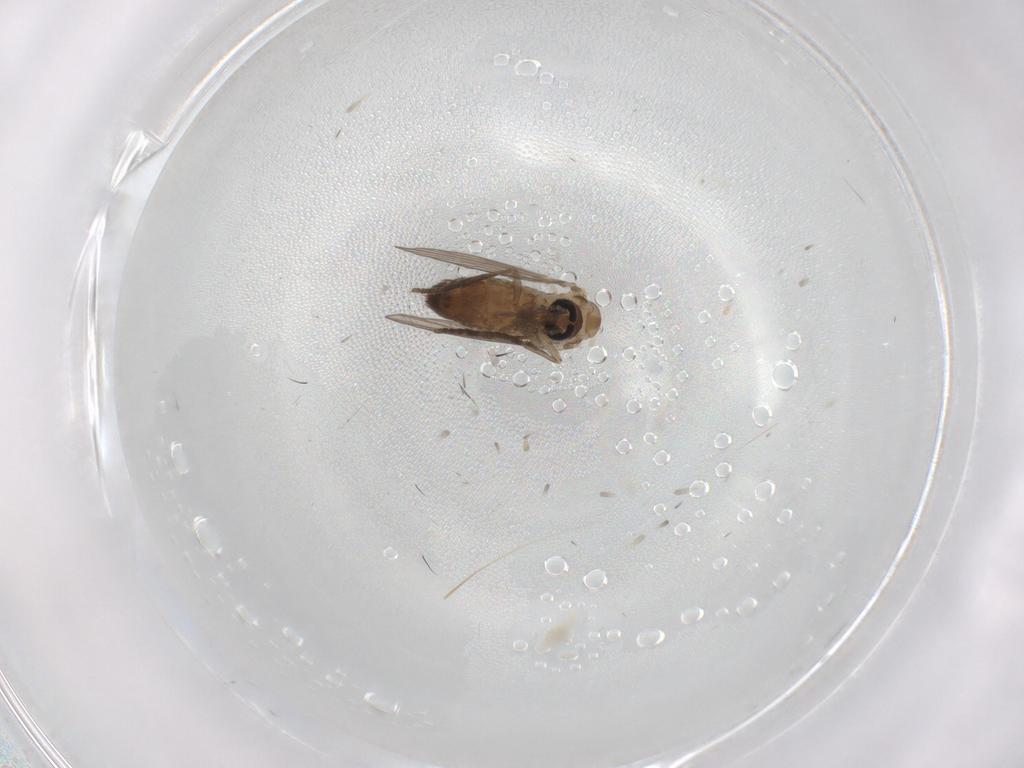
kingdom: Animalia
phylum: Arthropoda
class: Insecta
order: Diptera
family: Psychodidae
